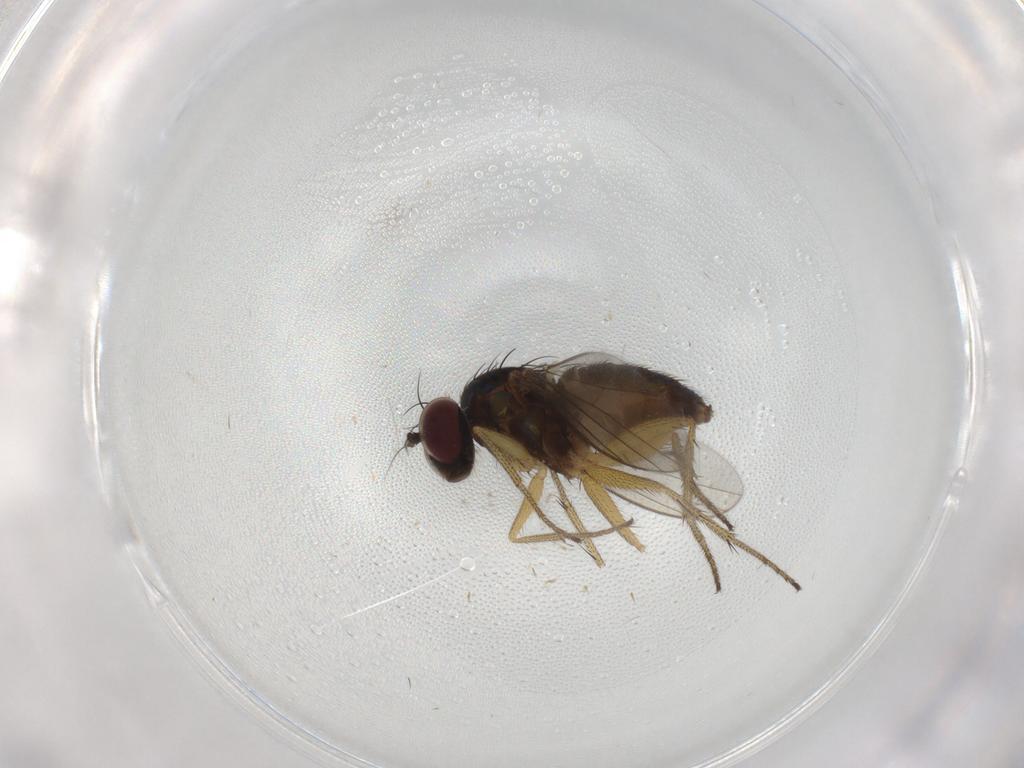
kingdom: Animalia
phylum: Arthropoda
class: Insecta
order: Diptera
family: Dolichopodidae
